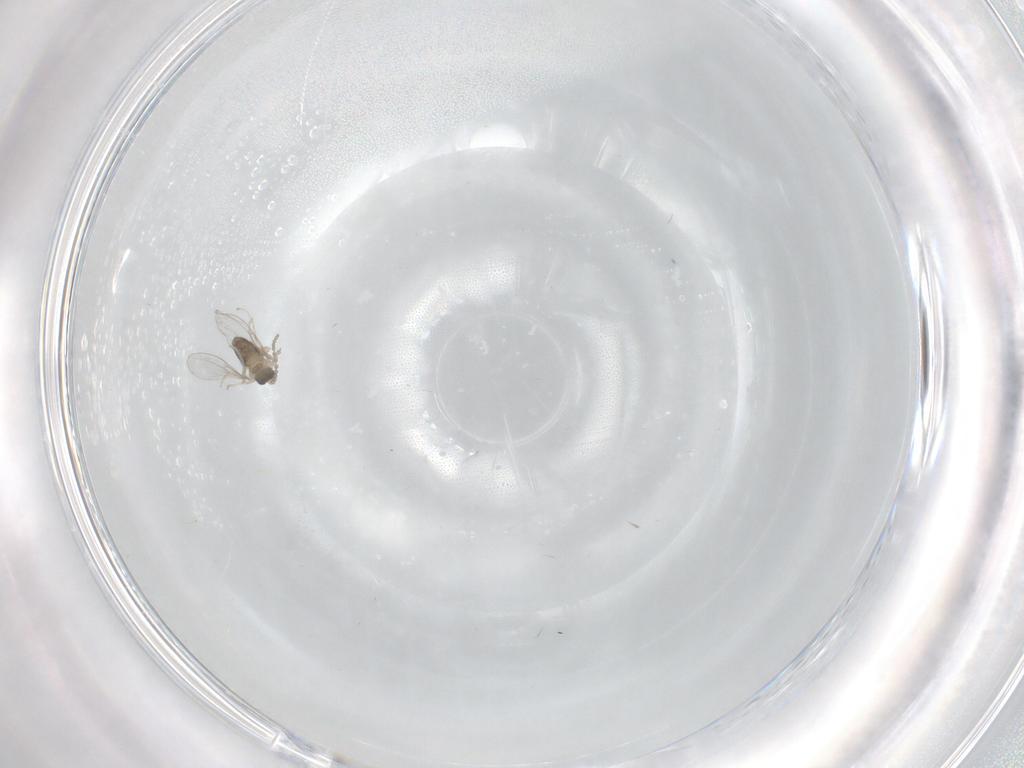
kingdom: Animalia
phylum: Arthropoda
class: Insecta
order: Diptera
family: Cecidomyiidae
